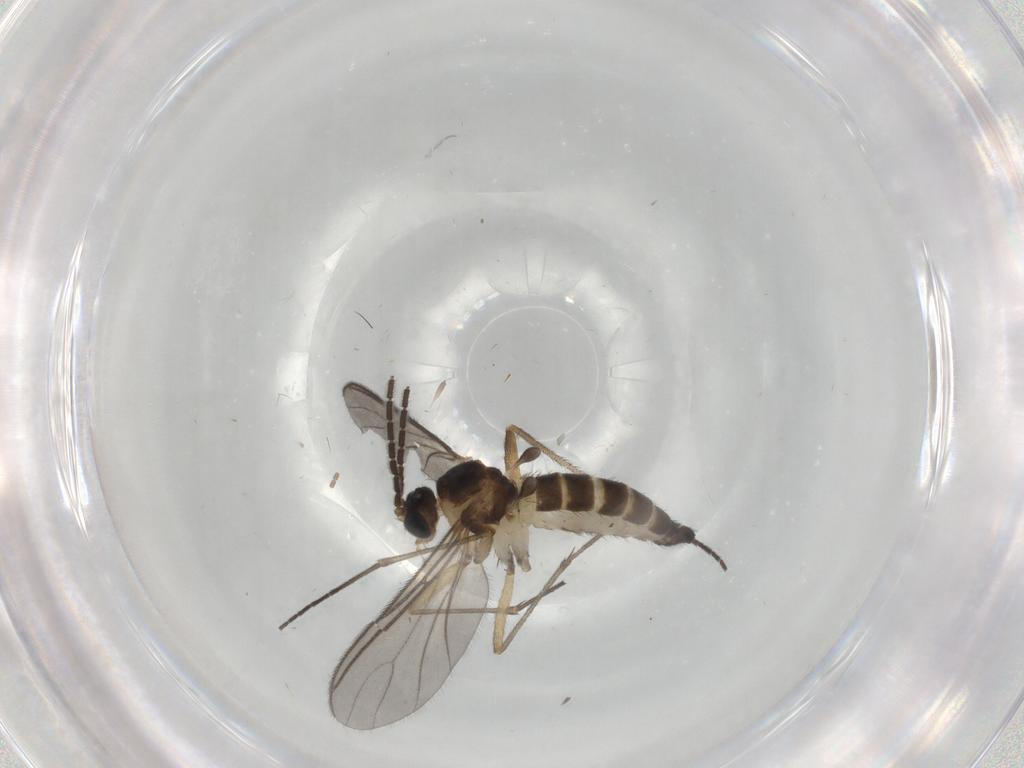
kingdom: Animalia
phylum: Arthropoda
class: Insecta
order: Diptera
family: Sciaridae
